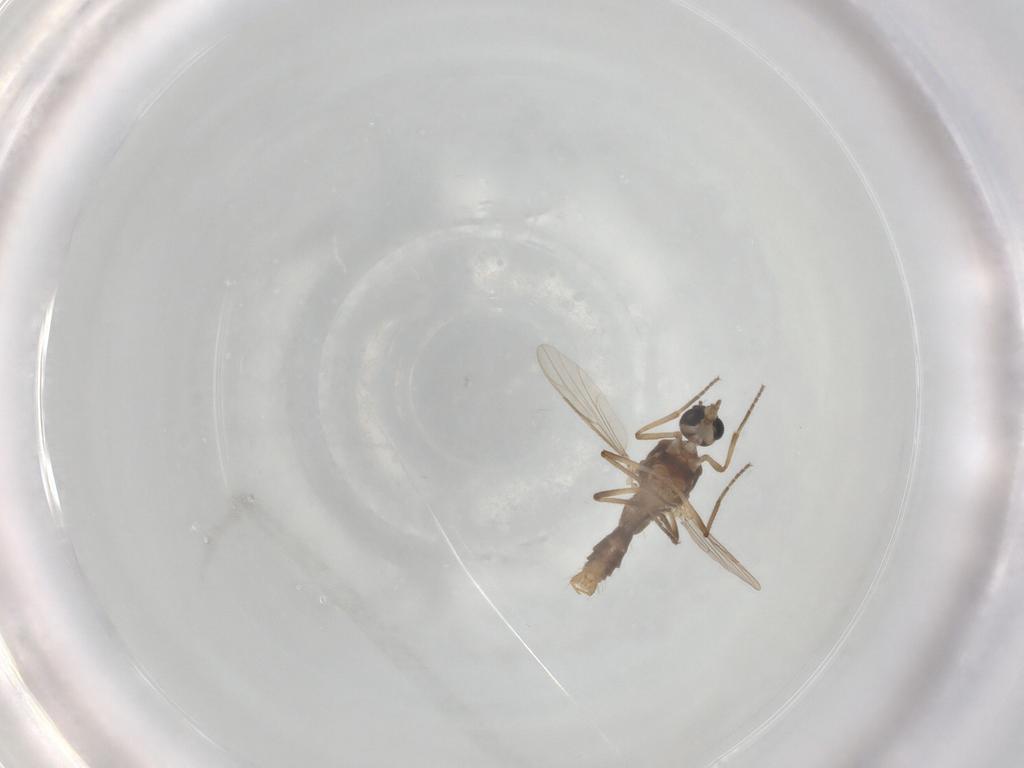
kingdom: Animalia
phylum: Arthropoda
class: Insecta
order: Diptera
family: Ceratopogonidae
